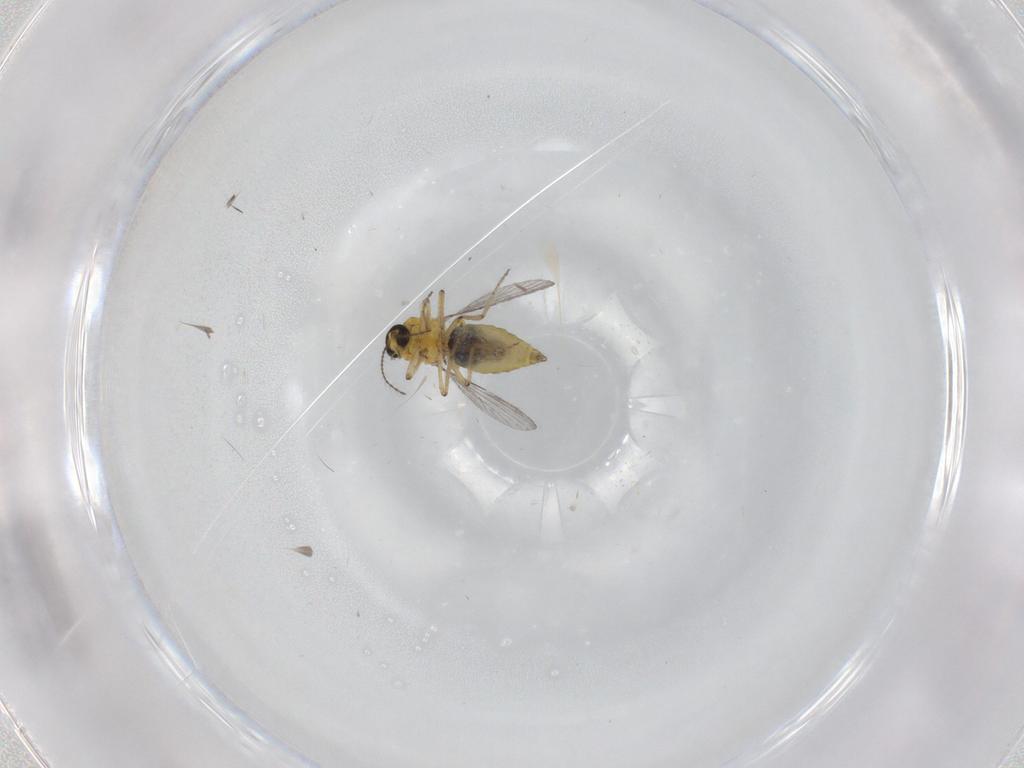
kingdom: Animalia
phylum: Arthropoda
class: Insecta
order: Diptera
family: Ceratopogonidae
